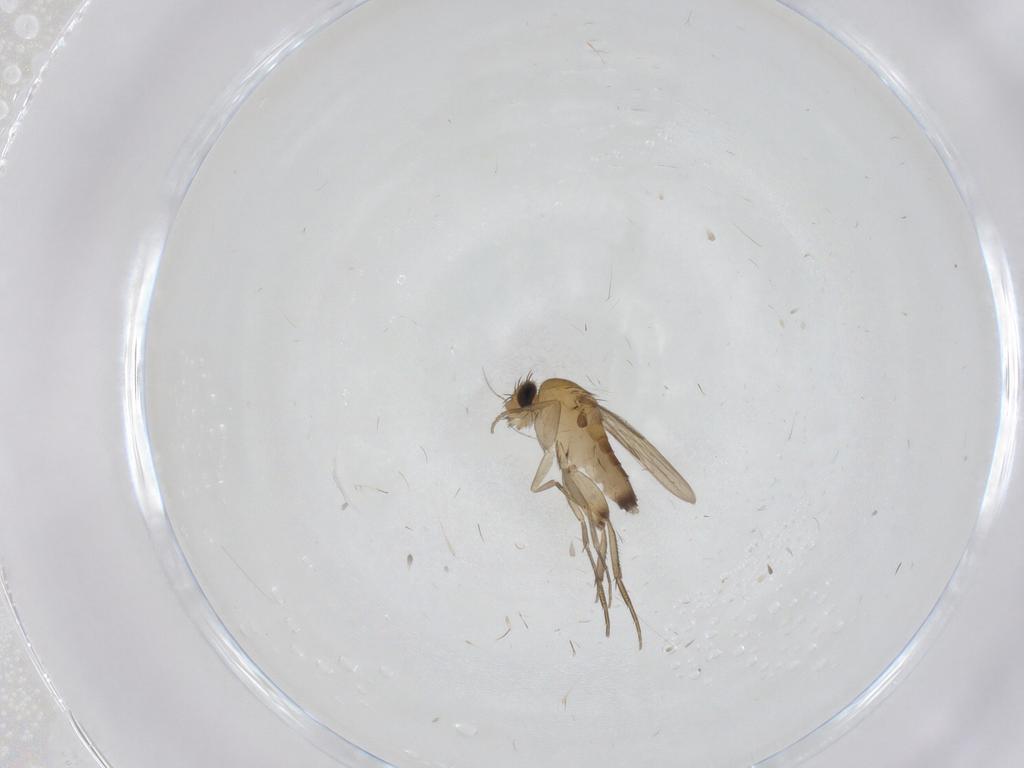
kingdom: Animalia
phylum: Arthropoda
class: Insecta
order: Diptera
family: Phoridae
